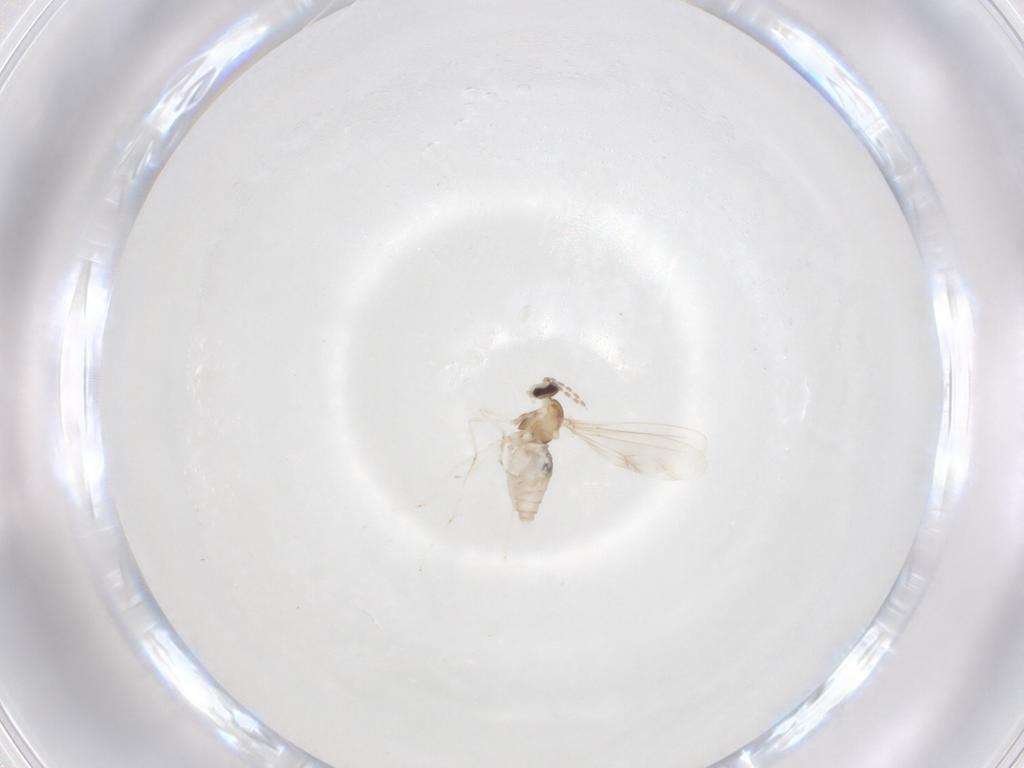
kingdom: Animalia
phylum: Arthropoda
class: Insecta
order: Diptera
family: Cecidomyiidae
